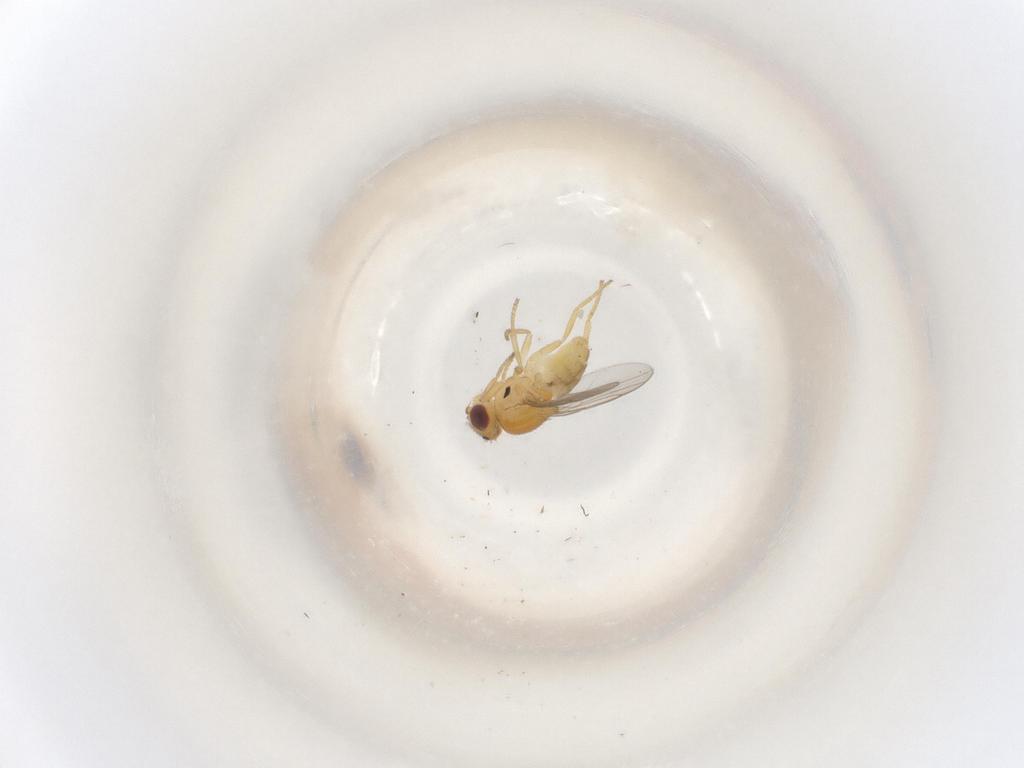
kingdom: Animalia
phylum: Arthropoda
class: Insecta
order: Diptera
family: Chloropidae
